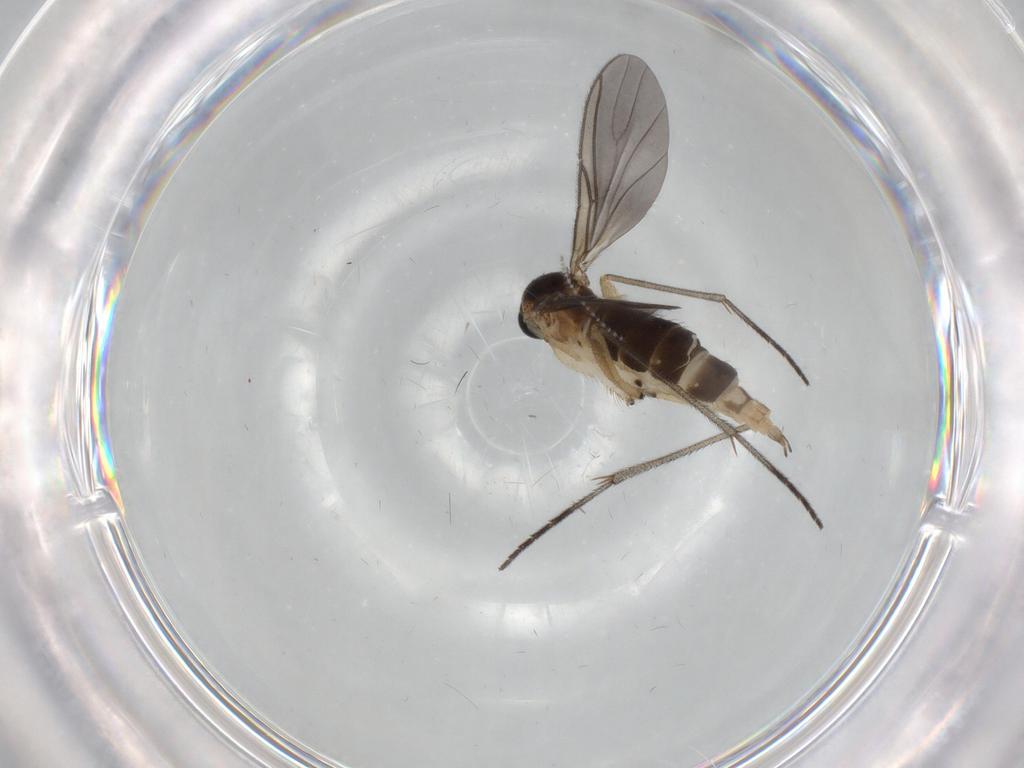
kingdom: Animalia
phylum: Arthropoda
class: Insecta
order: Diptera
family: Sciaridae
